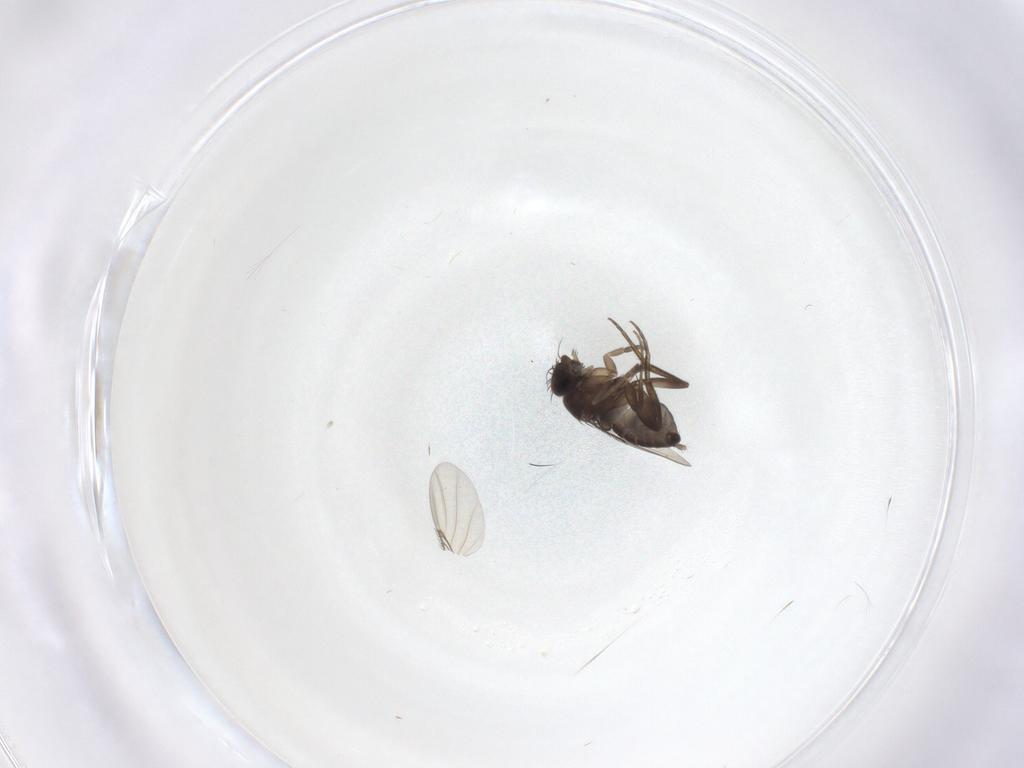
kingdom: Animalia
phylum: Arthropoda
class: Insecta
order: Diptera
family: Phoridae
